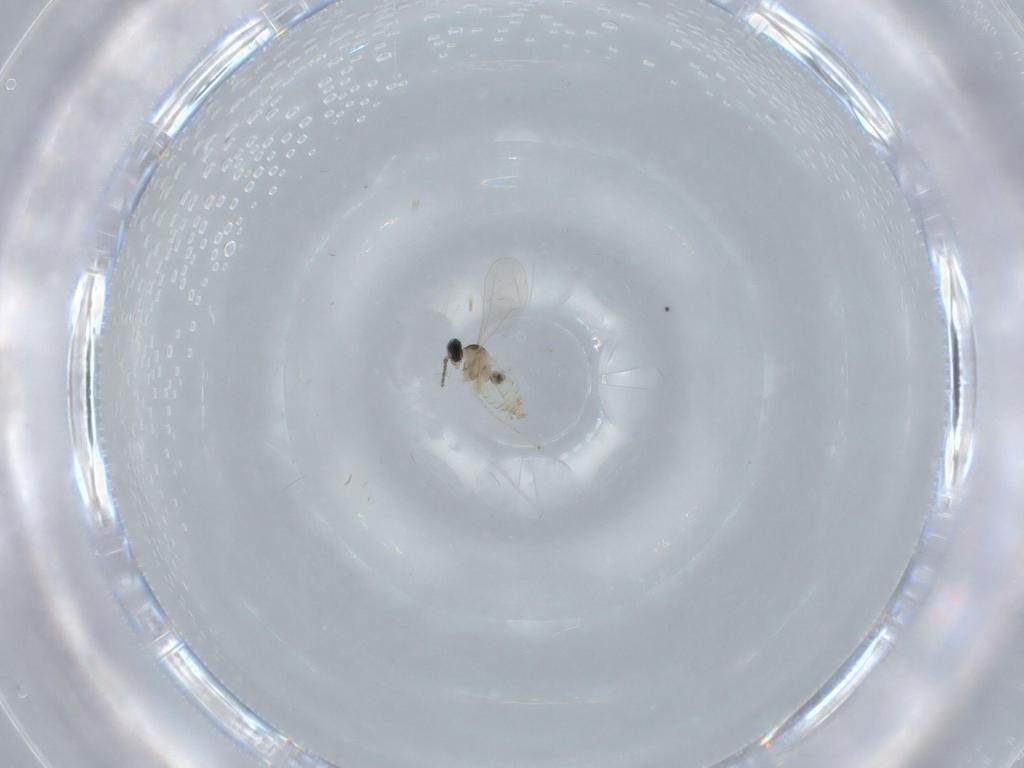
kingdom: Animalia
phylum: Arthropoda
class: Insecta
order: Diptera
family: Cecidomyiidae
